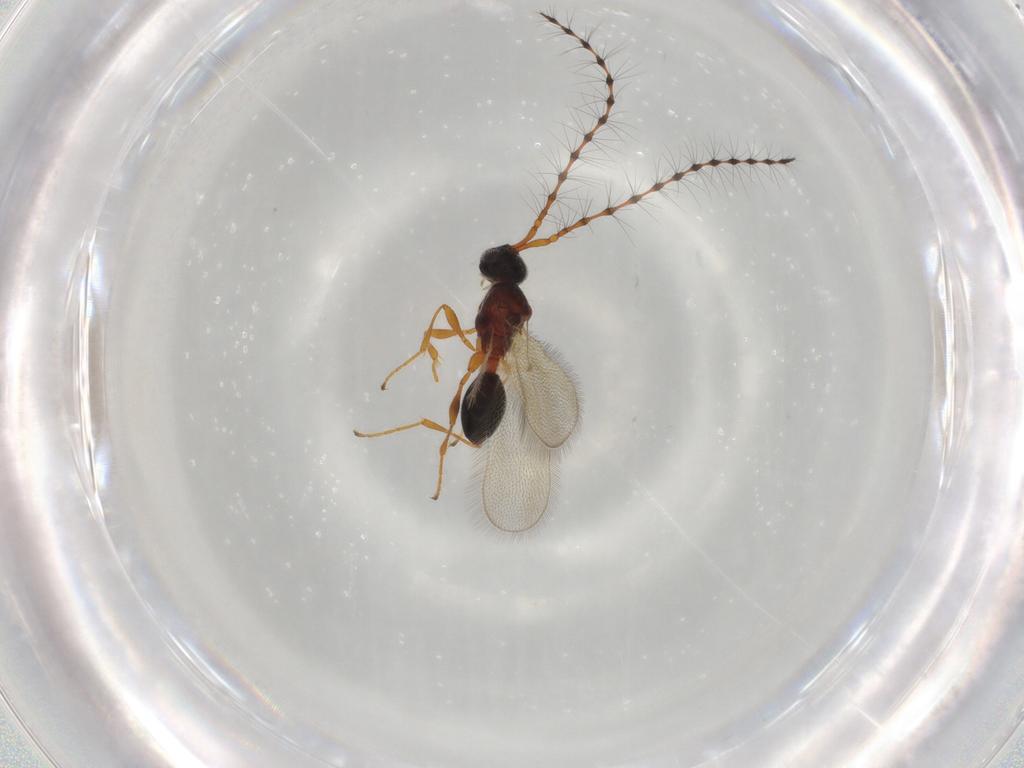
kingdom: Animalia
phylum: Arthropoda
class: Insecta
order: Hymenoptera
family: Diapriidae
